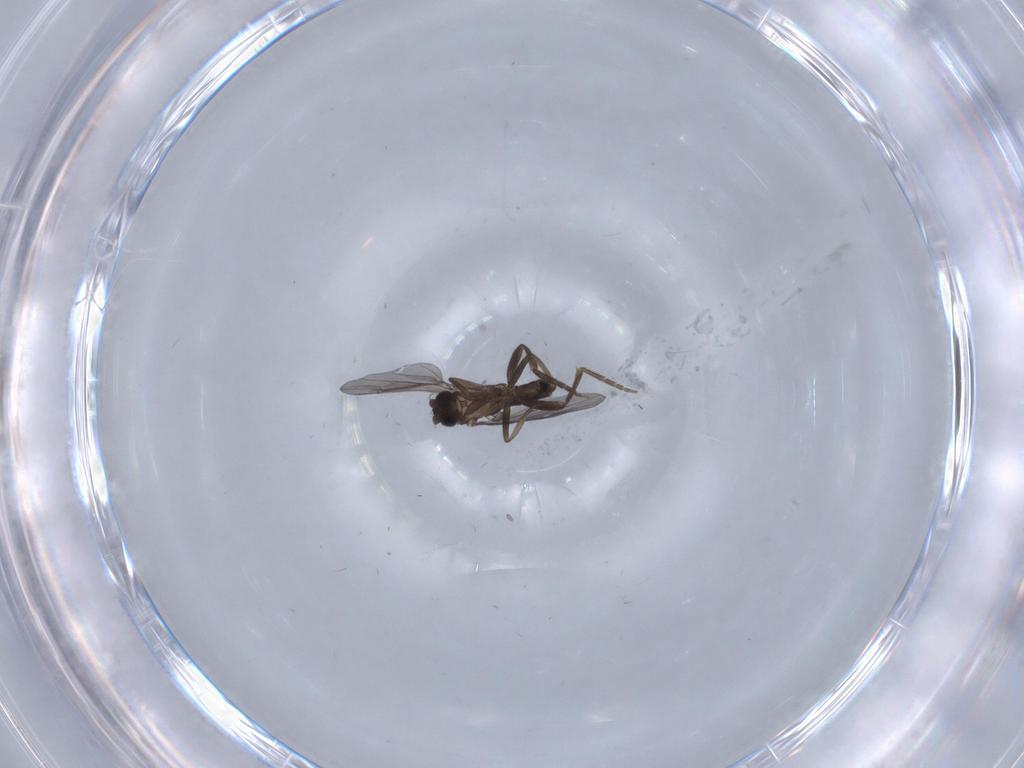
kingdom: Animalia
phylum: Arthropoda
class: Insecta
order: Diptera
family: Phoridae
